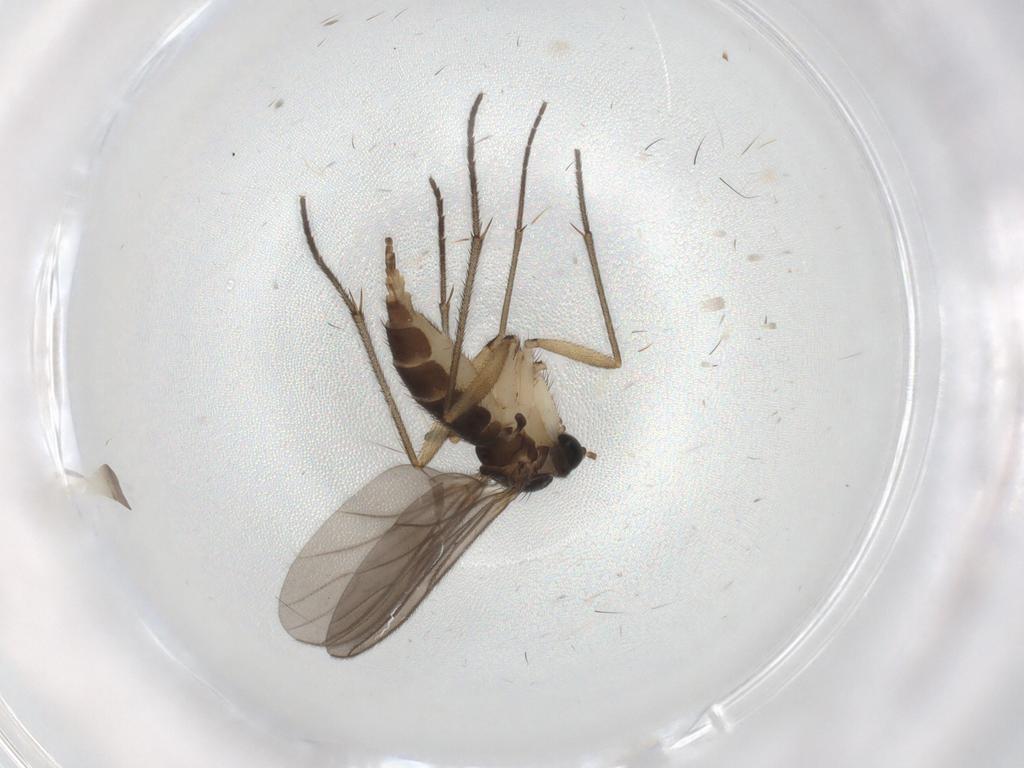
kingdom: Animalia
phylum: Arthropoda
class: Insecta
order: Diptera
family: Sciaridae
